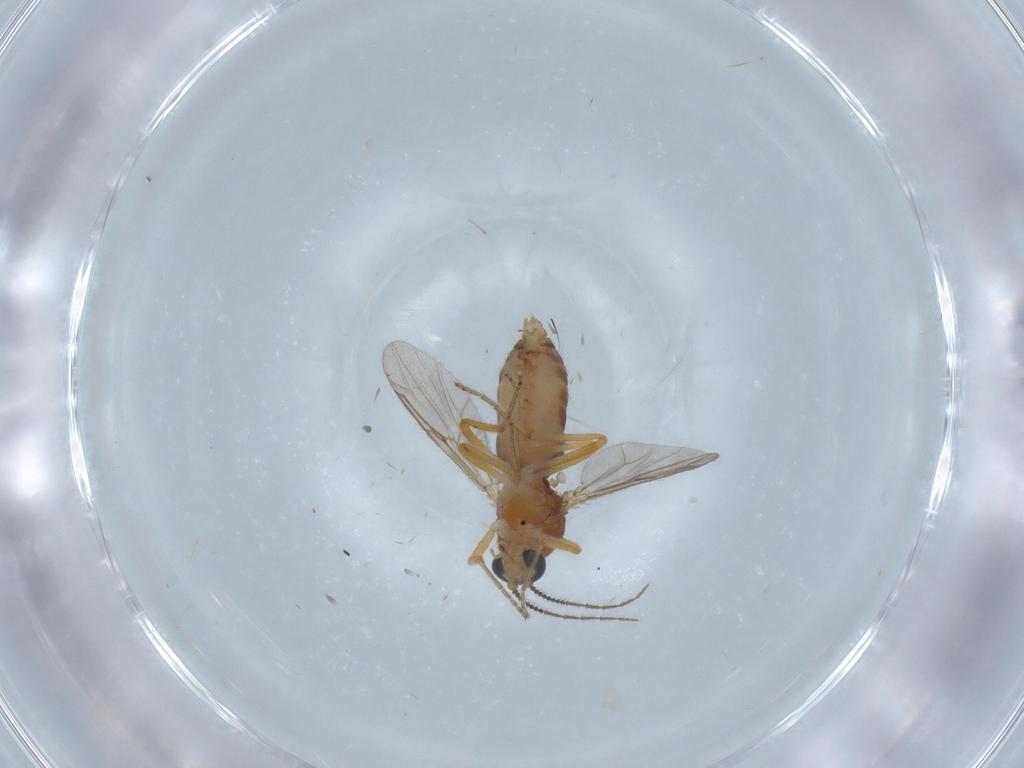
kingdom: Animalia
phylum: Arthropoda
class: Insecta
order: Diptera
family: Ceratopogonidae
